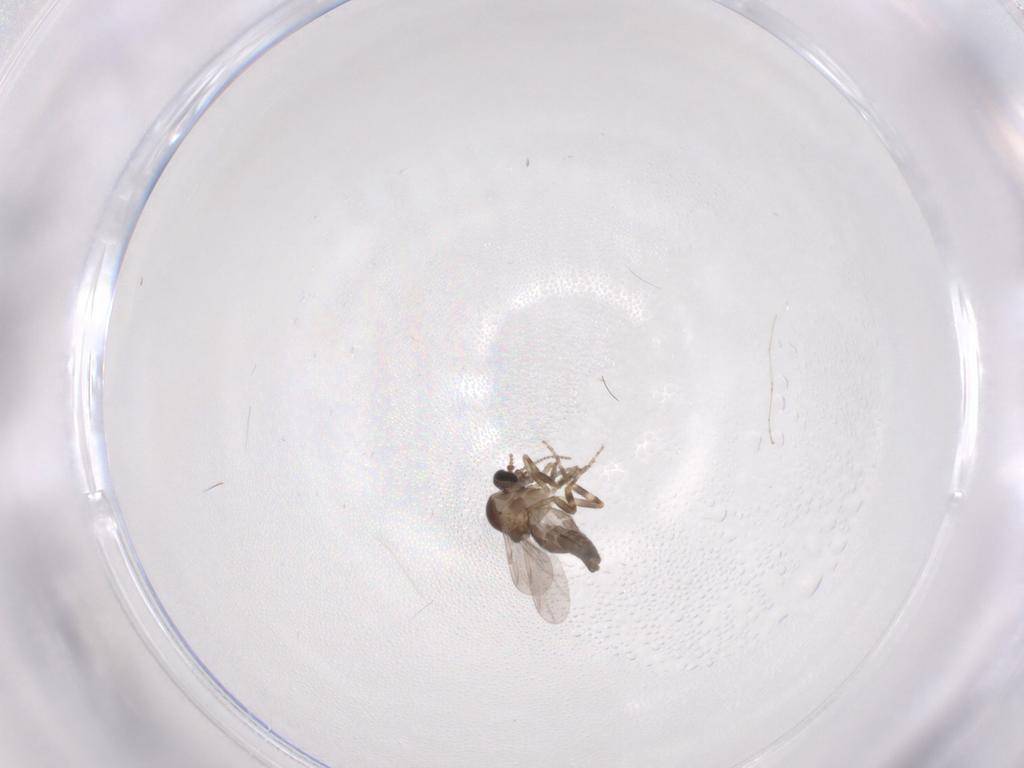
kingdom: Animalia
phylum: Arthropoda
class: Insecta
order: Diptera
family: Ceratopogonidae
